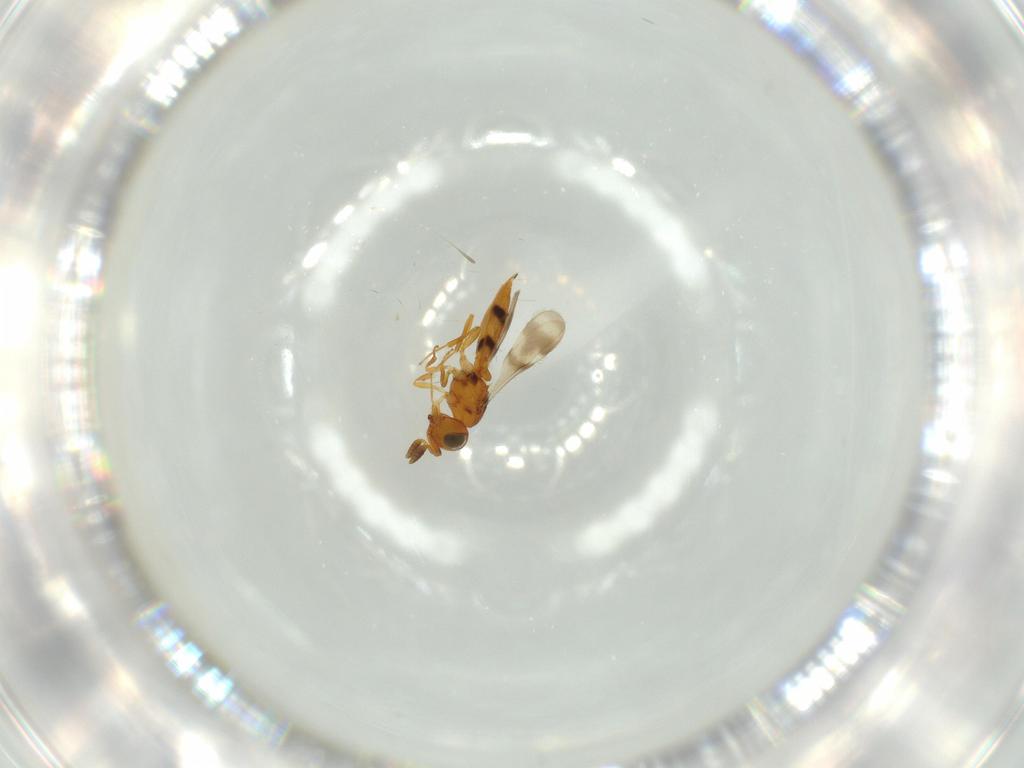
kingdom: Animalia
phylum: Arthropoda
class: Insecta
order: Hymenoptera
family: Scelionidae
